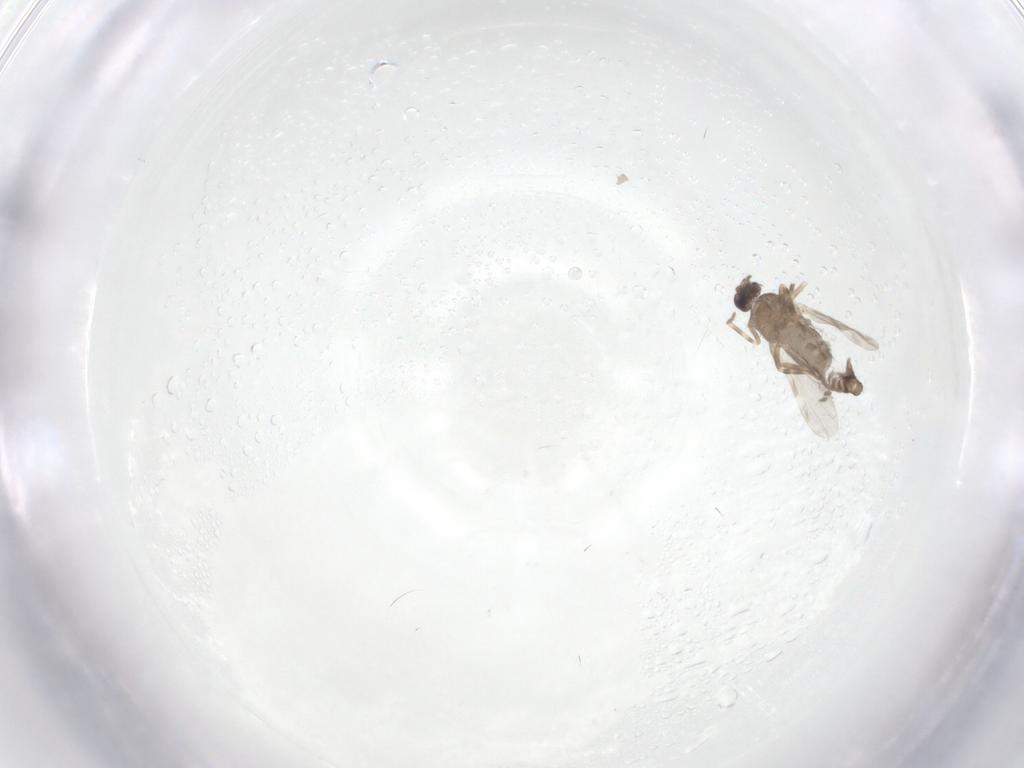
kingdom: Animalia
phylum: Arthropoda
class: Insecta
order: Diptera
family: Ceratopogonidae
